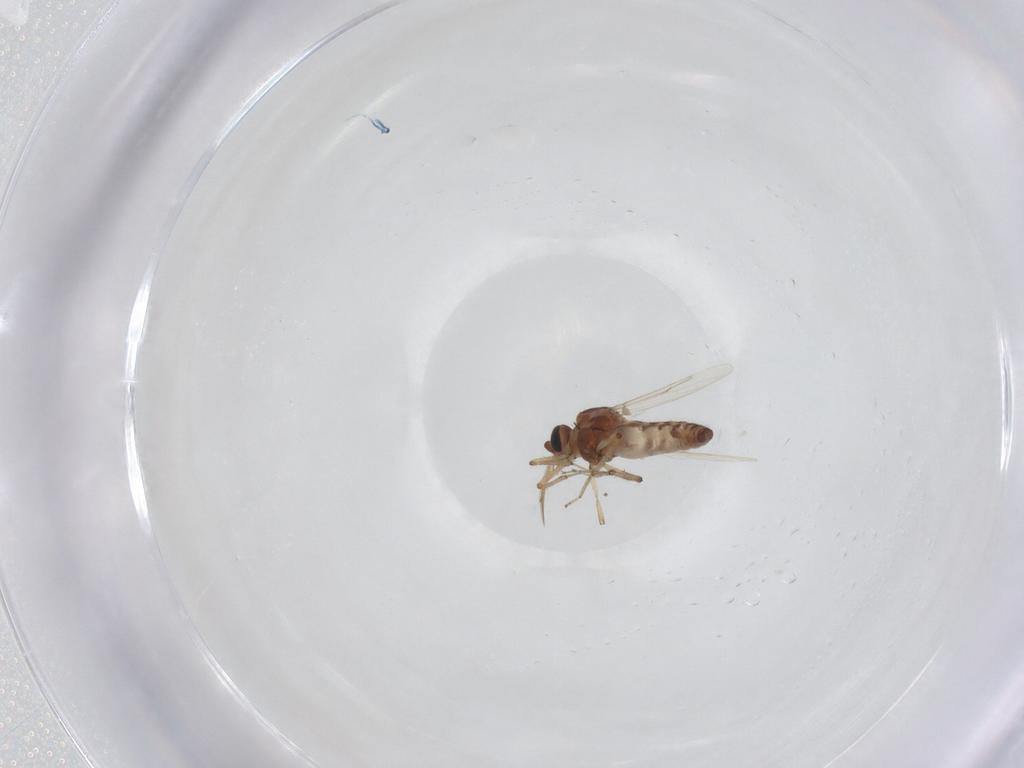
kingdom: Animalia
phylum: Arthropoda
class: Insecta
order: Diptera
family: Ceratopogonidae
